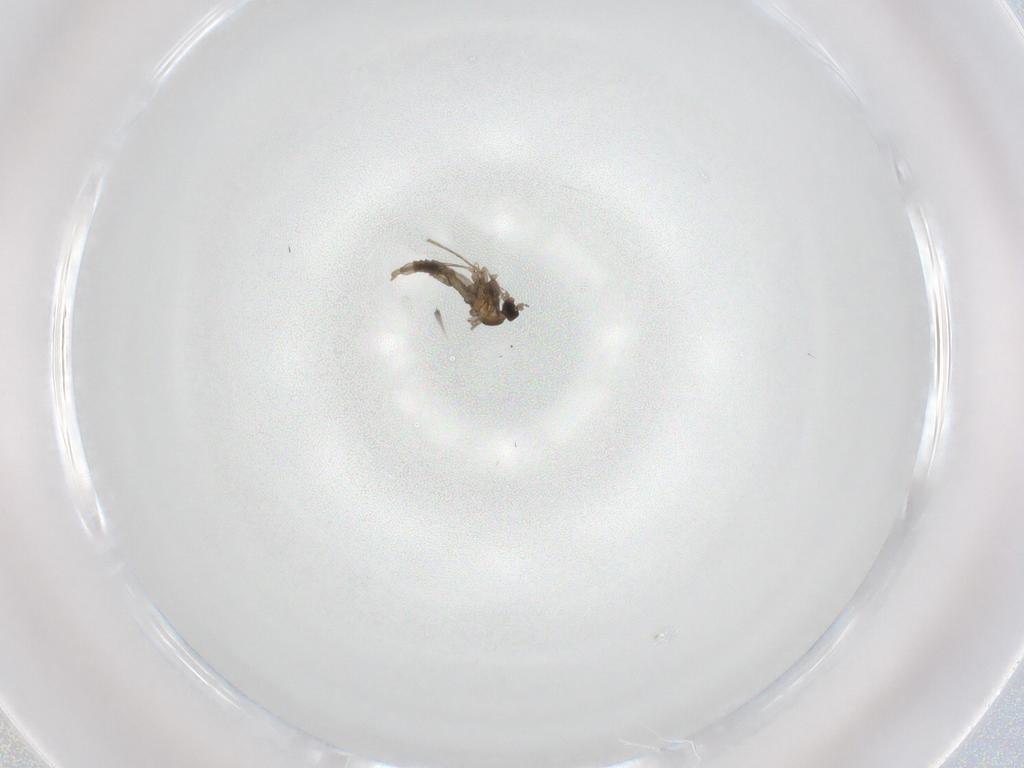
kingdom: Animalia
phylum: Arthropoda
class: Insecta
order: Diptera
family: Cecidomyiidae
